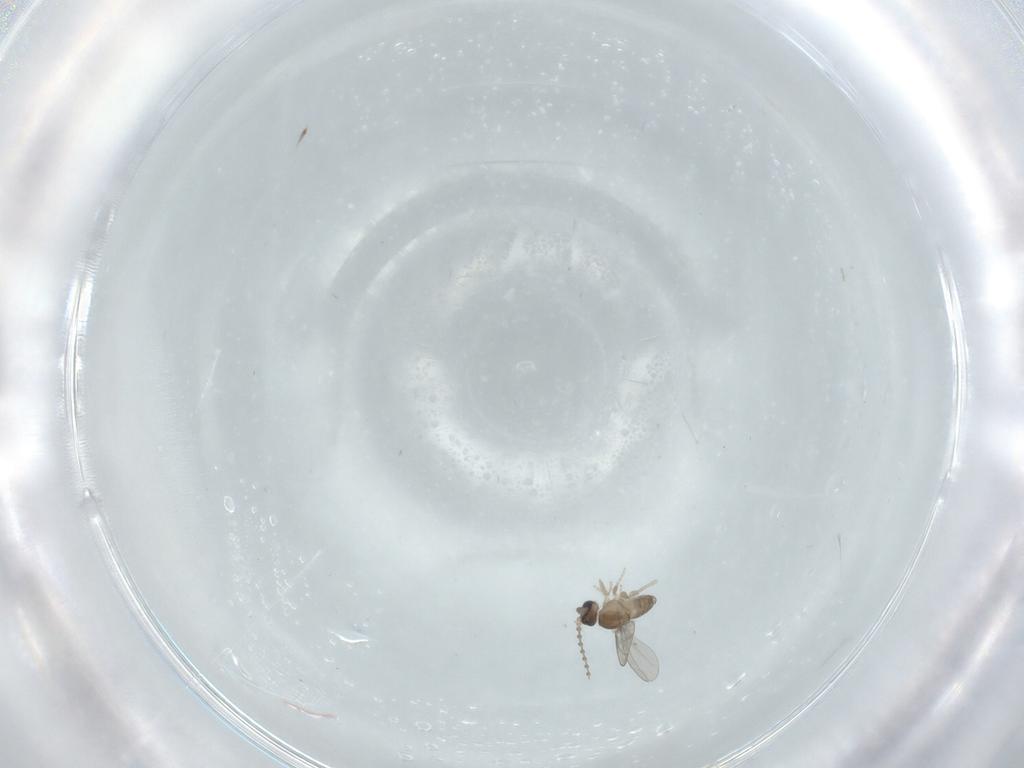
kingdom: Animalia
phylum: Arthropoda
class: Insecta
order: Diptera
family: Cecidomyiidae
